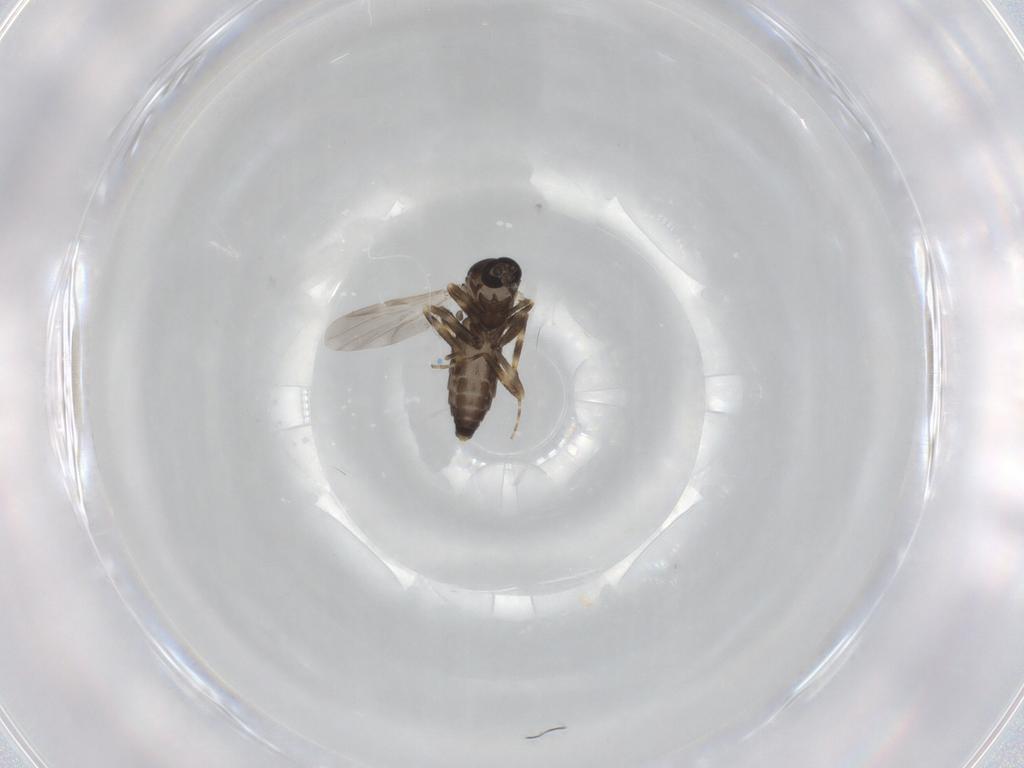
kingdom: Animalia
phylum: Arthropoda
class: Insecta
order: Diptera
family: Ceratopogonidae
